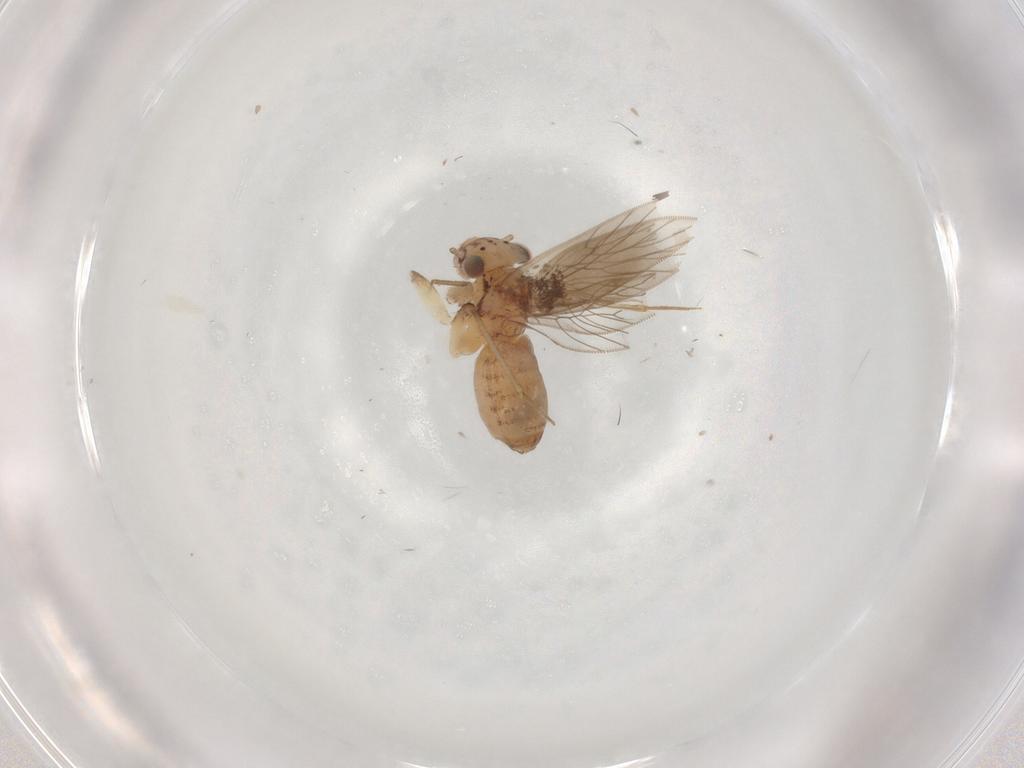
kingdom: Animalia
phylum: Arthropoda
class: Insecta
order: Psocodea
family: Lepidopsocidae
